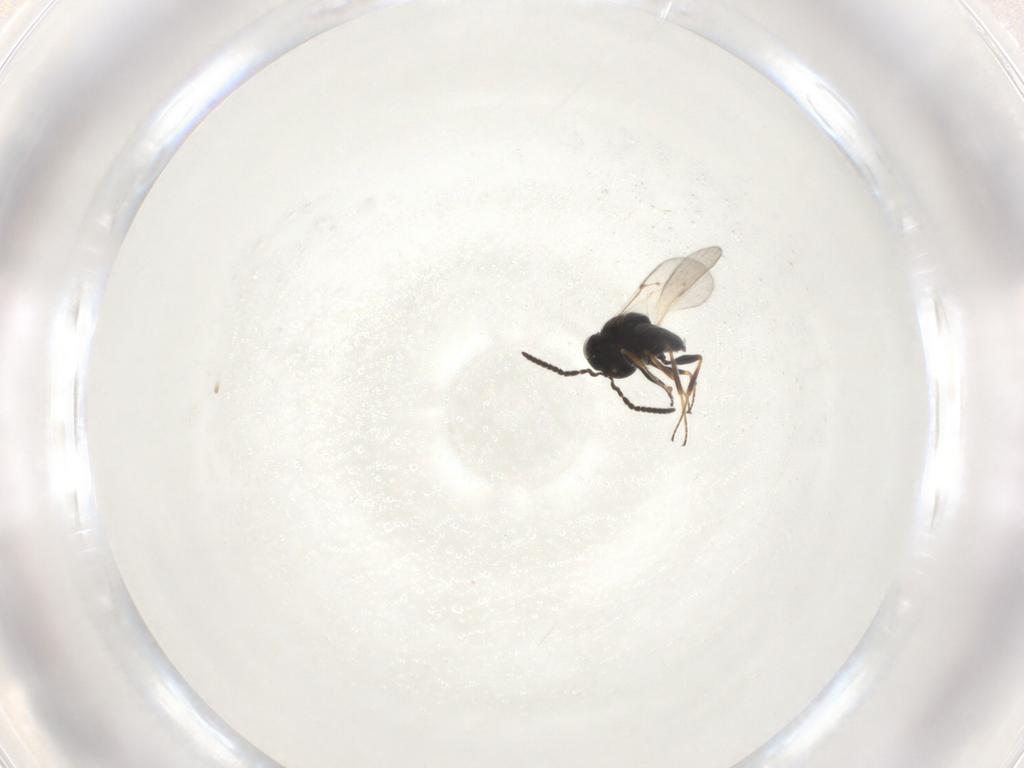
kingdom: Animalia
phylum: Arthropoda
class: Insecta
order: Hymenoptera
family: Scelionidae
